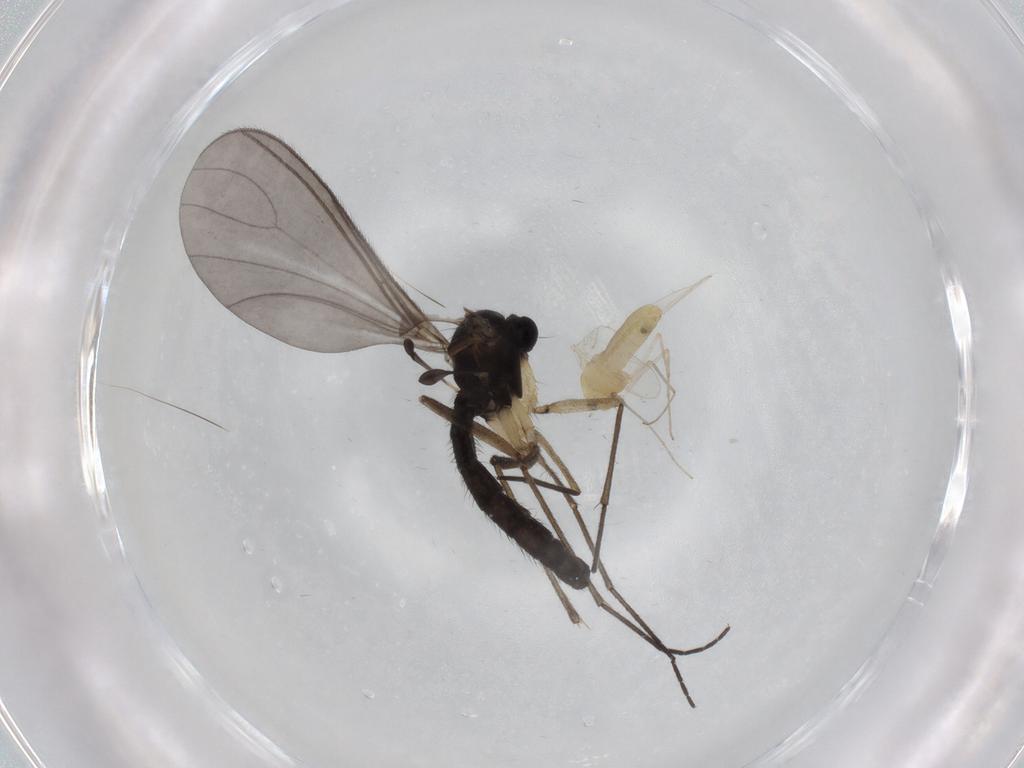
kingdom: Animalia
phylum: Arthropoda
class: Insecta
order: Diptera
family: Chironomidae
